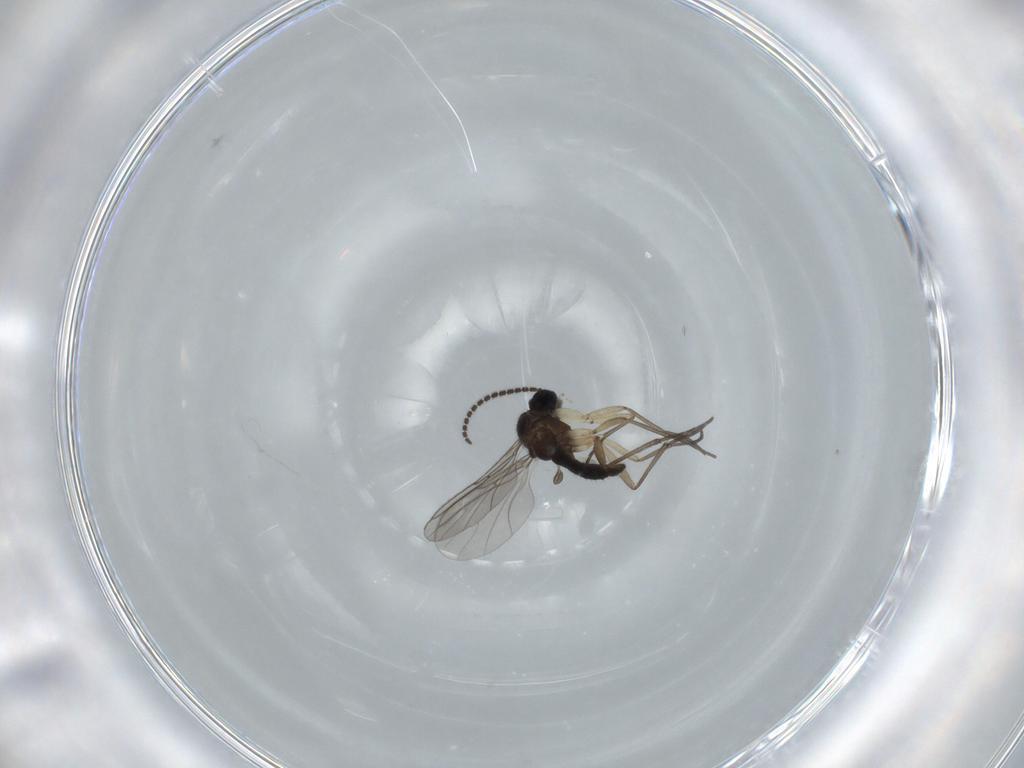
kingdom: Animalia
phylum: Arthropoda
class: Insecta
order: Diptera
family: Sciaridae
